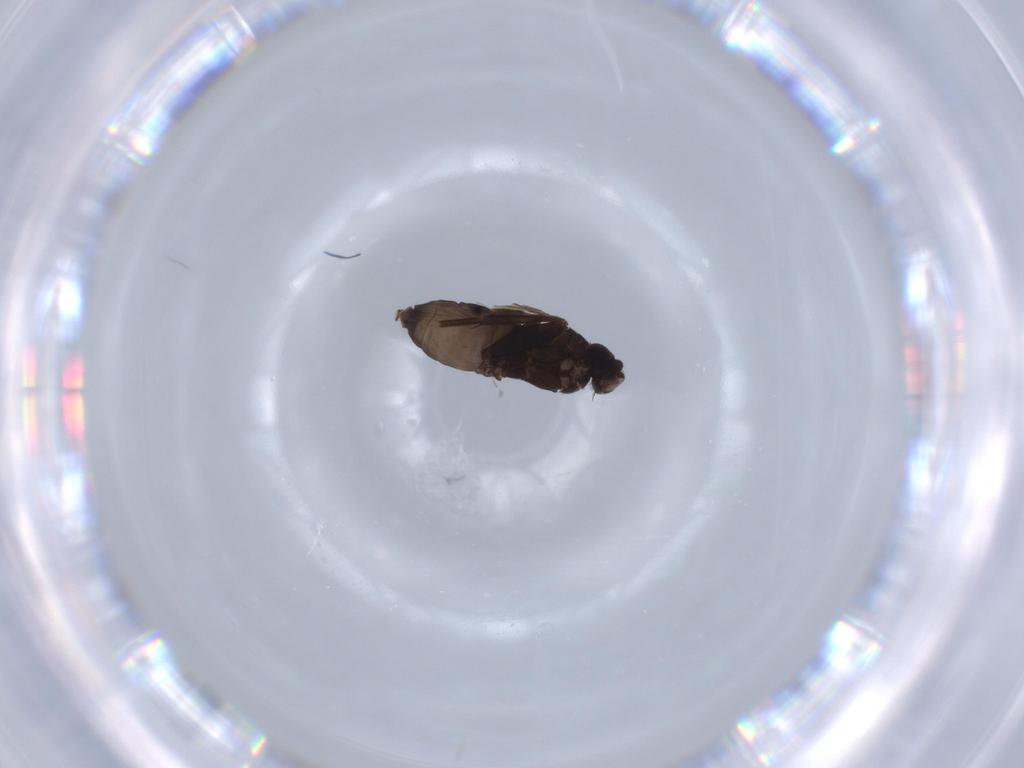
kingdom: Animalia
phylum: Arthropoda
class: Insecta
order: Diptera
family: Phoridae
